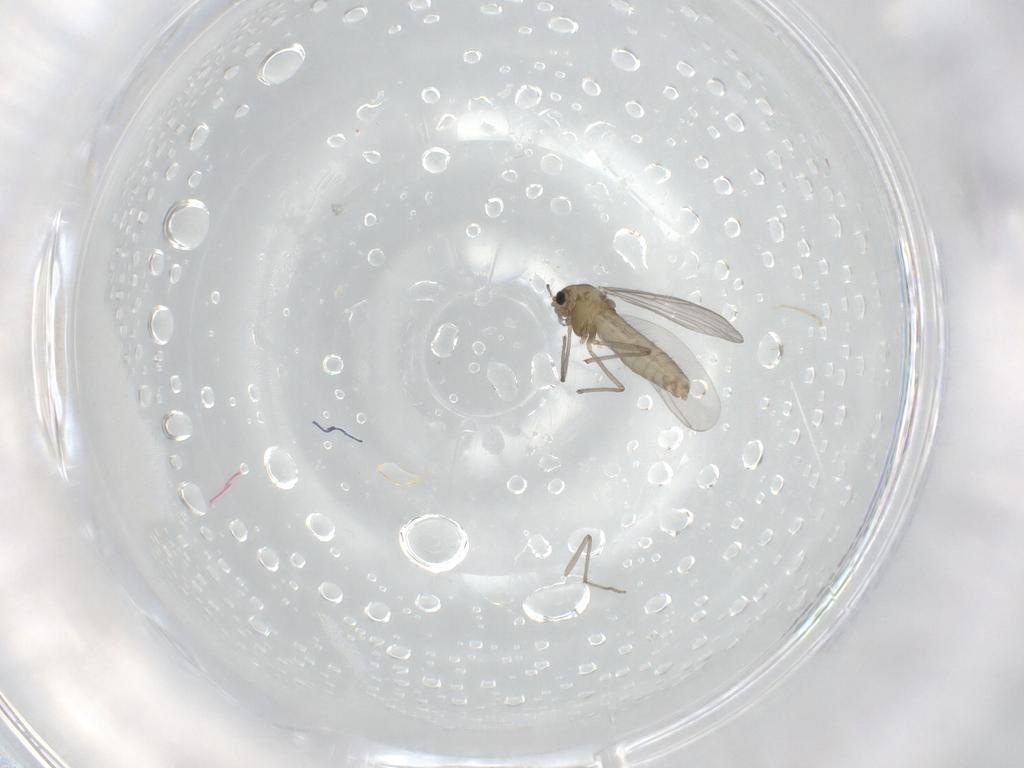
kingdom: Animalia
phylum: Arthropoda
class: Insecta
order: Diptera
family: Chironomidae
